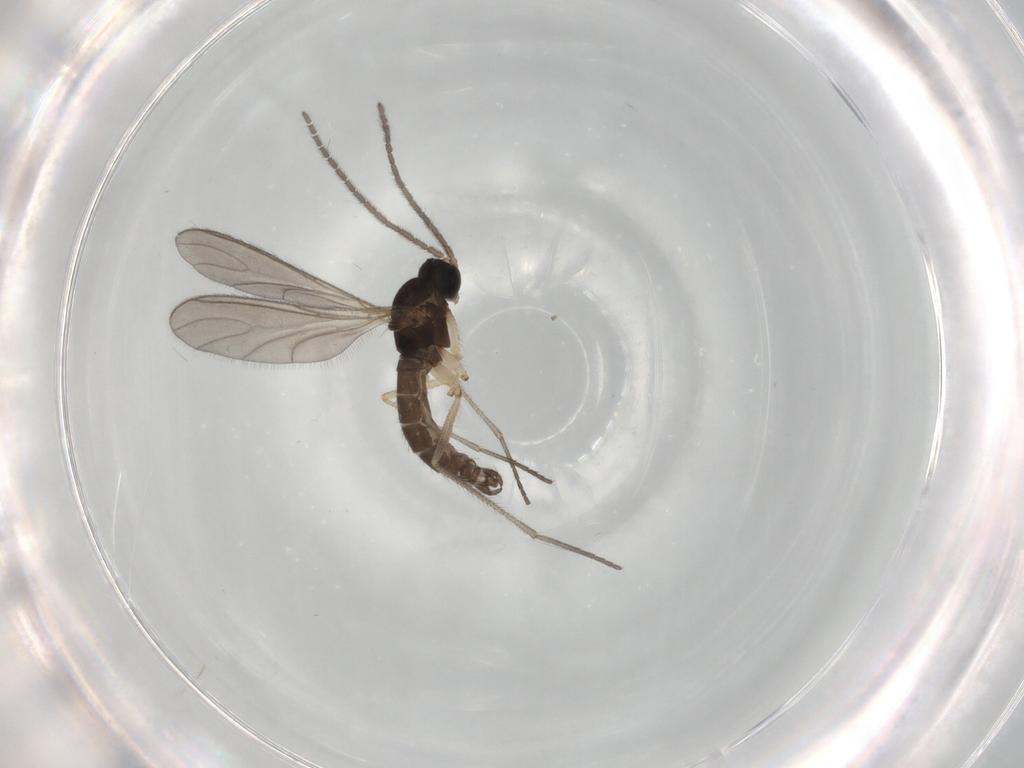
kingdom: Animalia
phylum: Arthropoda
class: Insecta
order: Diptera
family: Sciaridae
